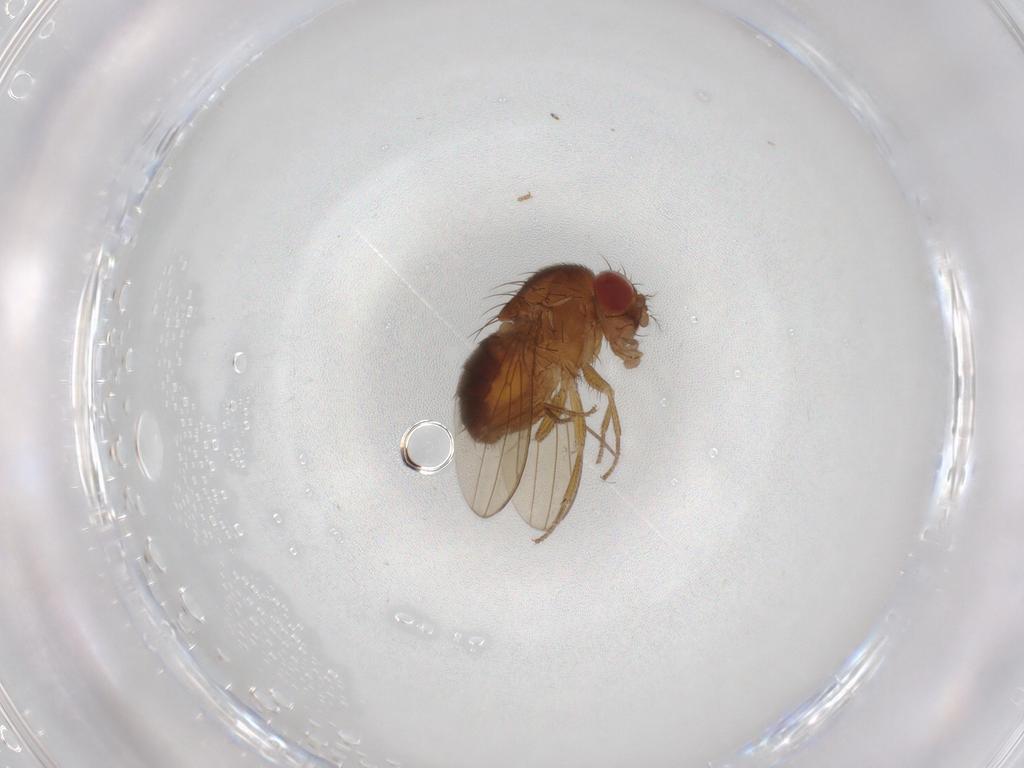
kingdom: Animalia
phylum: Arthropoda
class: Insecta
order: Diptera
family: Drosophilidae
